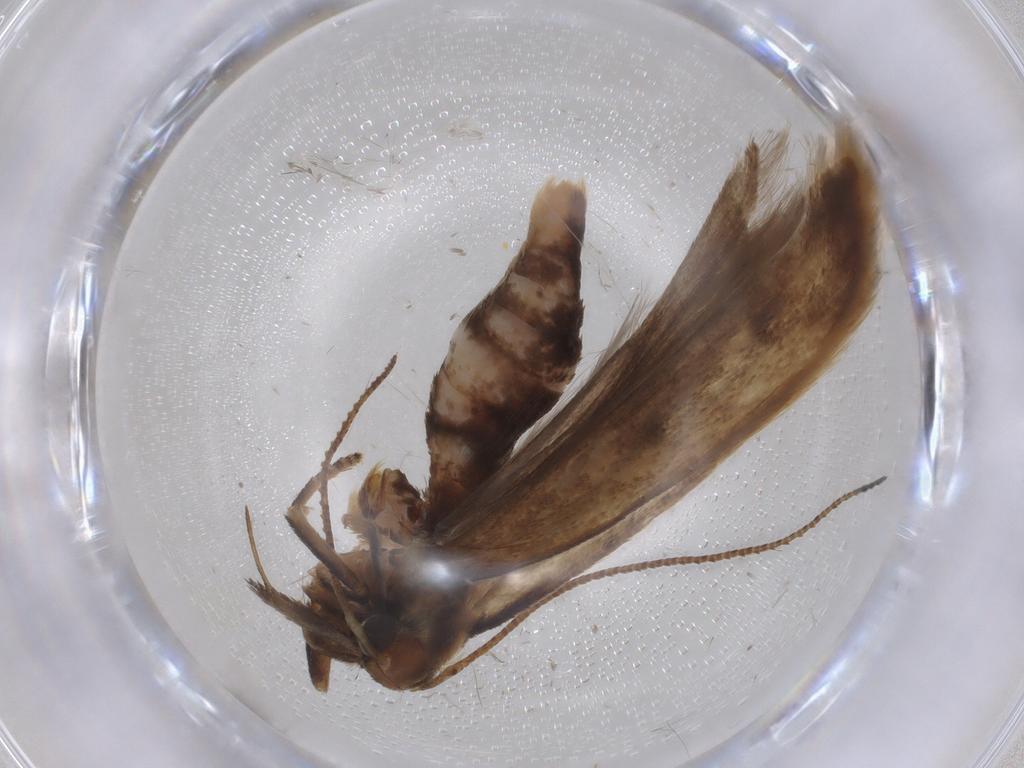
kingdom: Animalia
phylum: Arthropoda
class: Insecta
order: Lepidoptera
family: Gelechiidae
